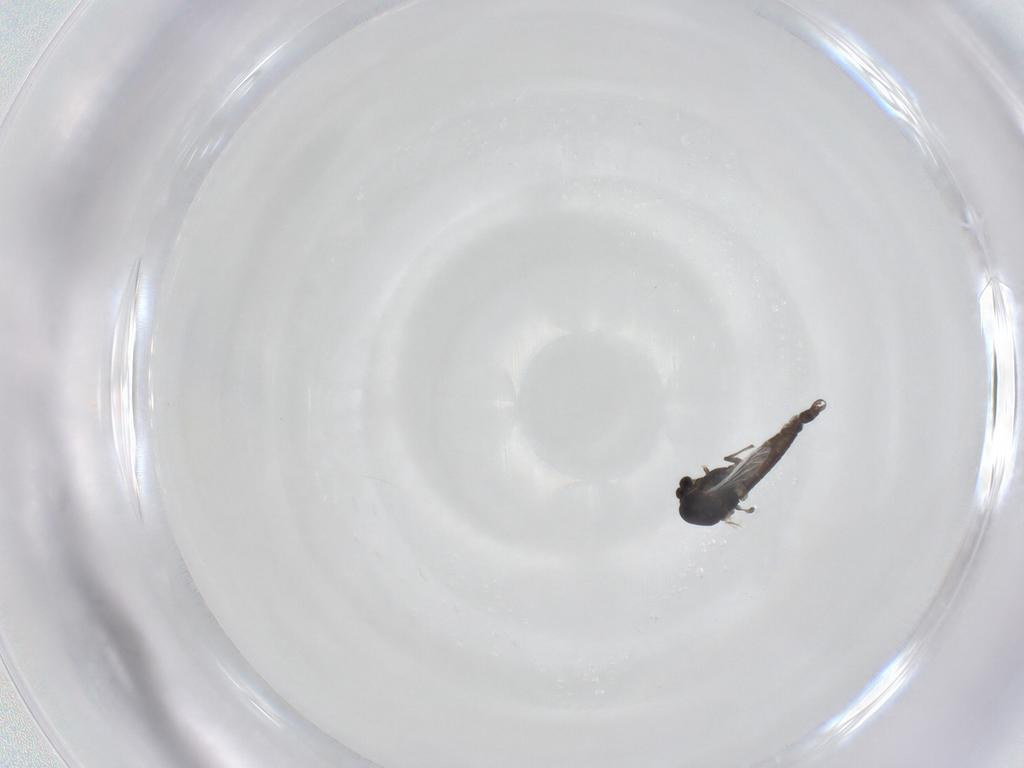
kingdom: Animalia
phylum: Arthropoda
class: Insecta
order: Diptera
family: Chironomidae
